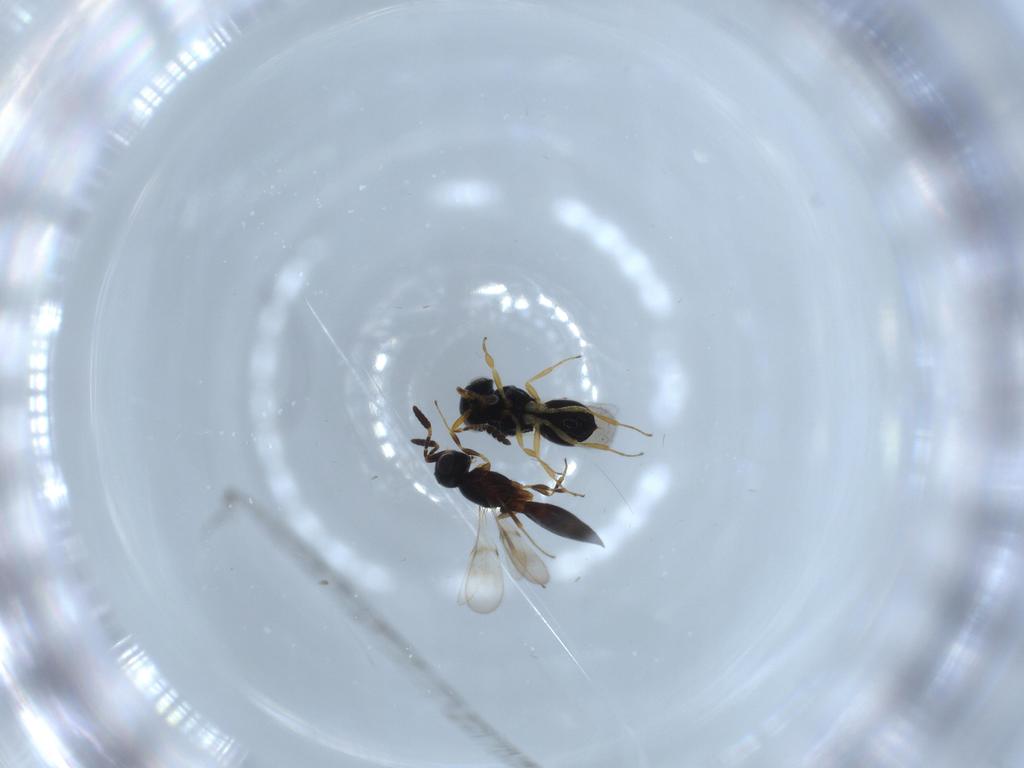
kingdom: Animalia
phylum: Arthropoda
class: Insecta
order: Hymenoptera
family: Scelionidae
